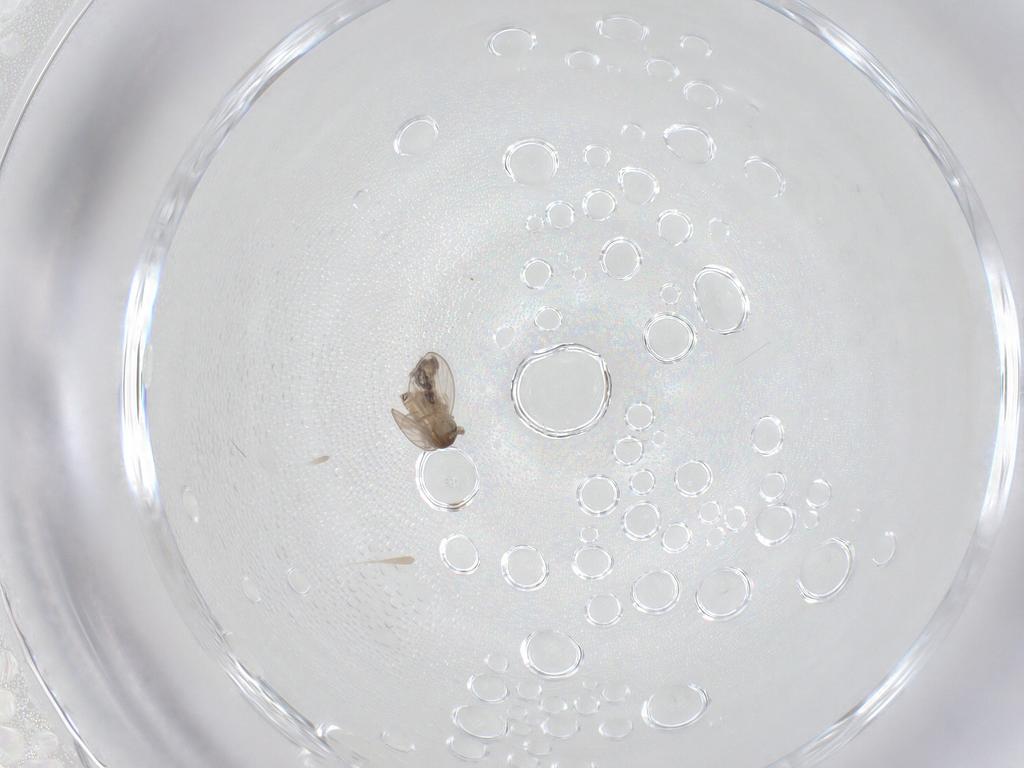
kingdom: Animalia
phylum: Arthropoda
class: Insecta
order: Diptera
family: Psychodidae
